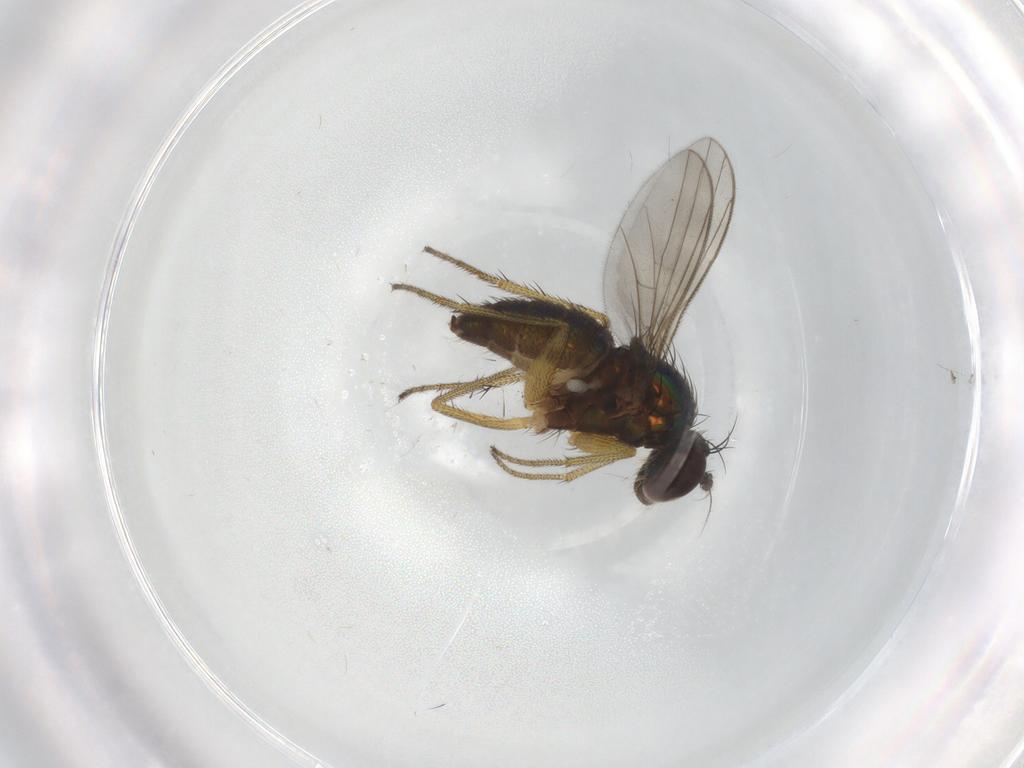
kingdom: Animalia
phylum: Arthropoda
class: Insecta
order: Diptera
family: Dolichopodidae
